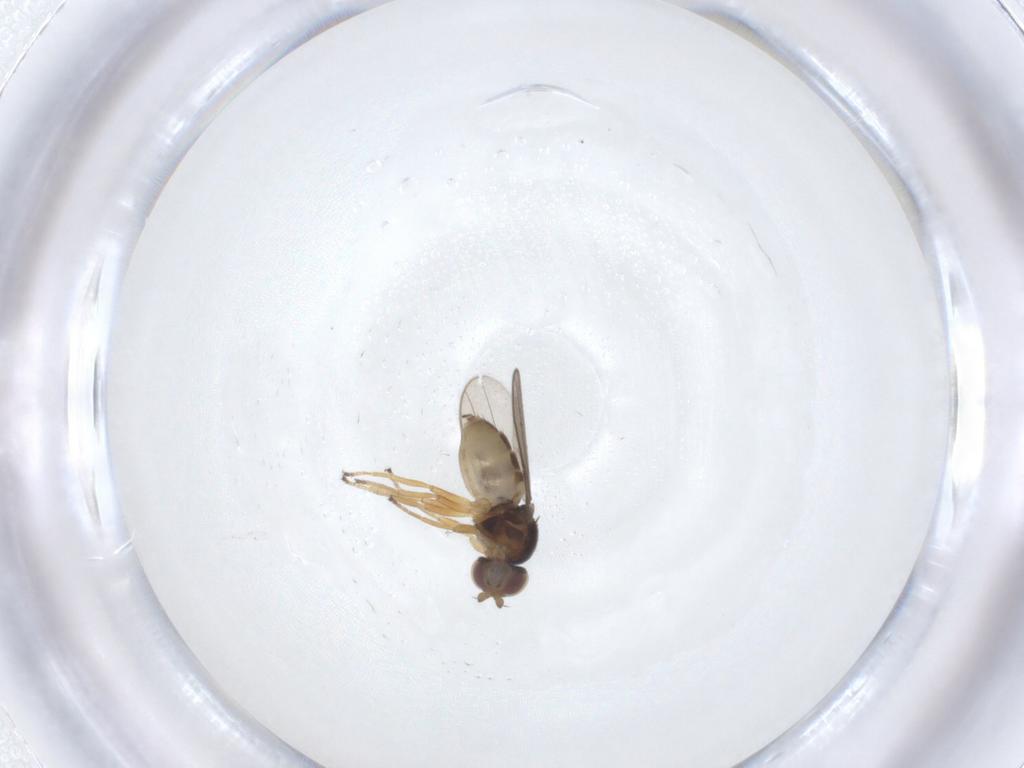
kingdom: Animalia
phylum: Arthropoda
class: Insecta
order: Diptera
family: Chloropidae
